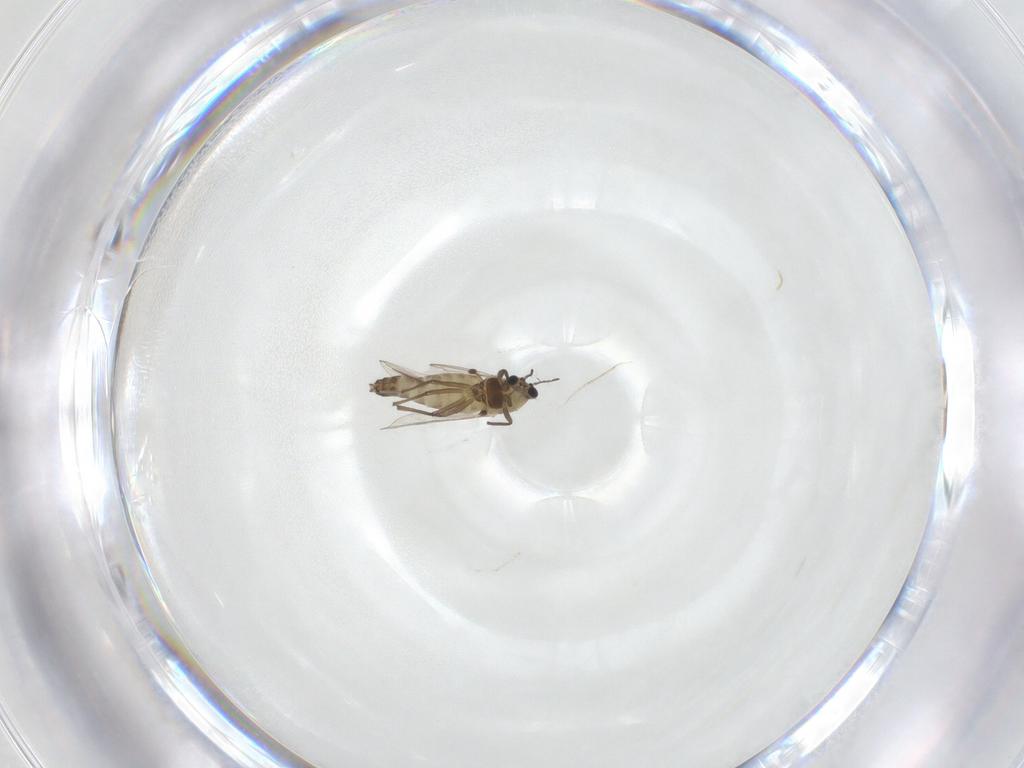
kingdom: Animalia
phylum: Arthropoda
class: Insecta
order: Diptera
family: Chironomidae
